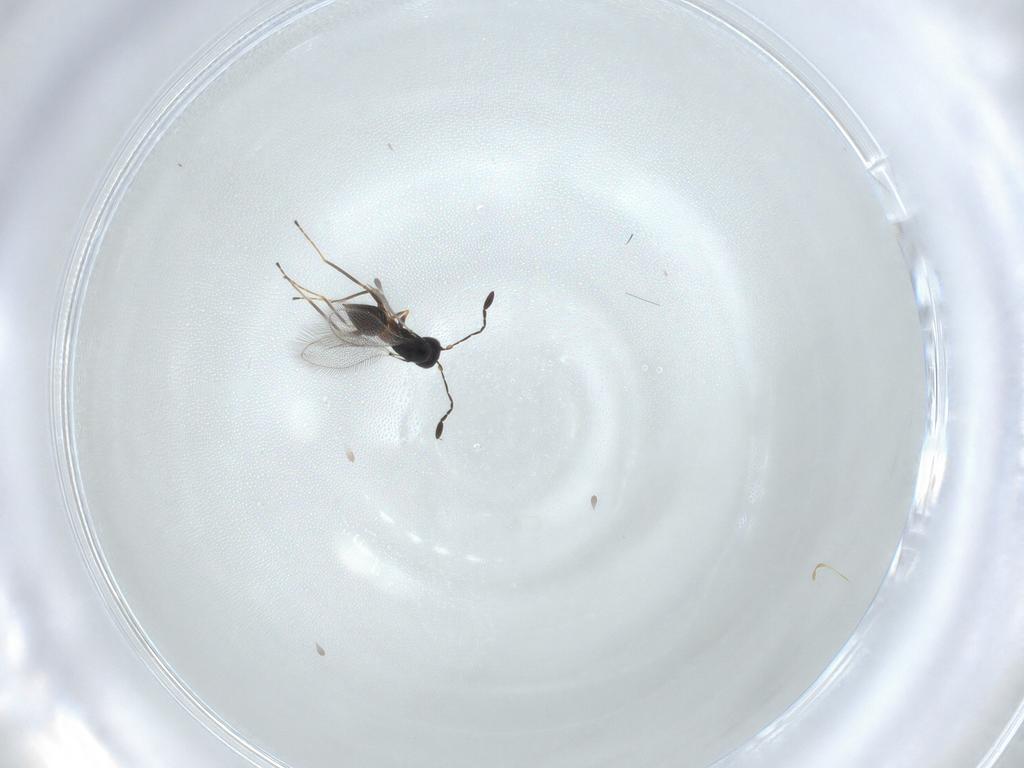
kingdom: Animalia
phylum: Arthropoda
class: Insecta
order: Hymenoptera
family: Mymaridae
